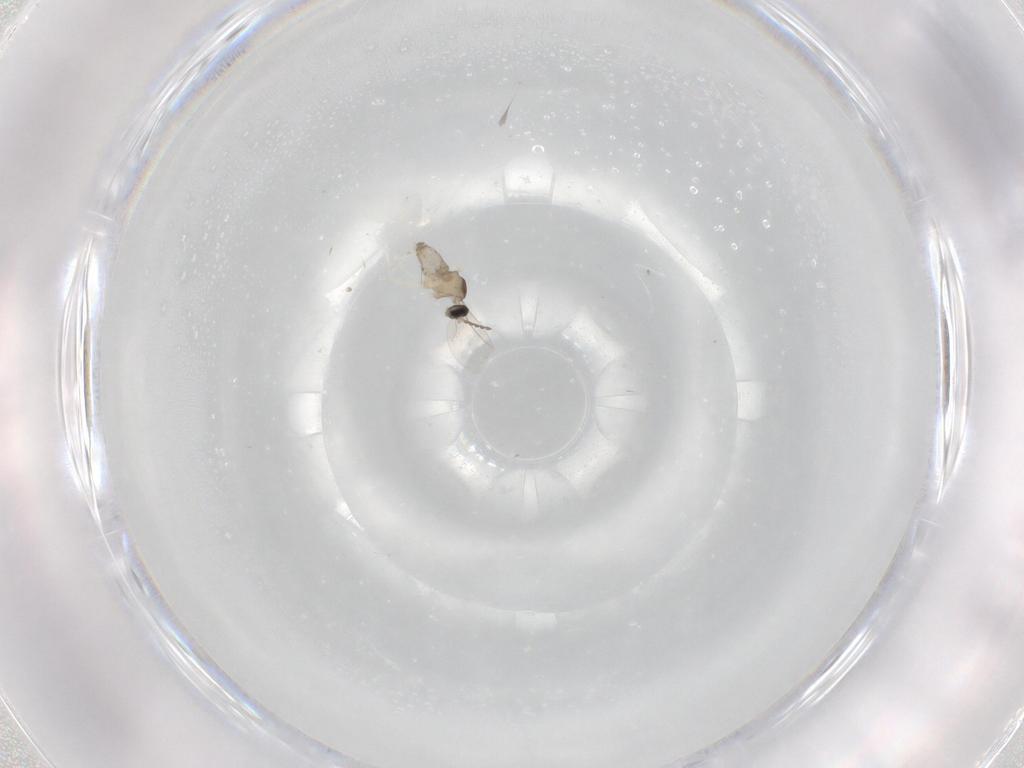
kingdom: Animalia
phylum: Arthropoda
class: Insecta
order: Diptera
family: Cecidomyiidae
